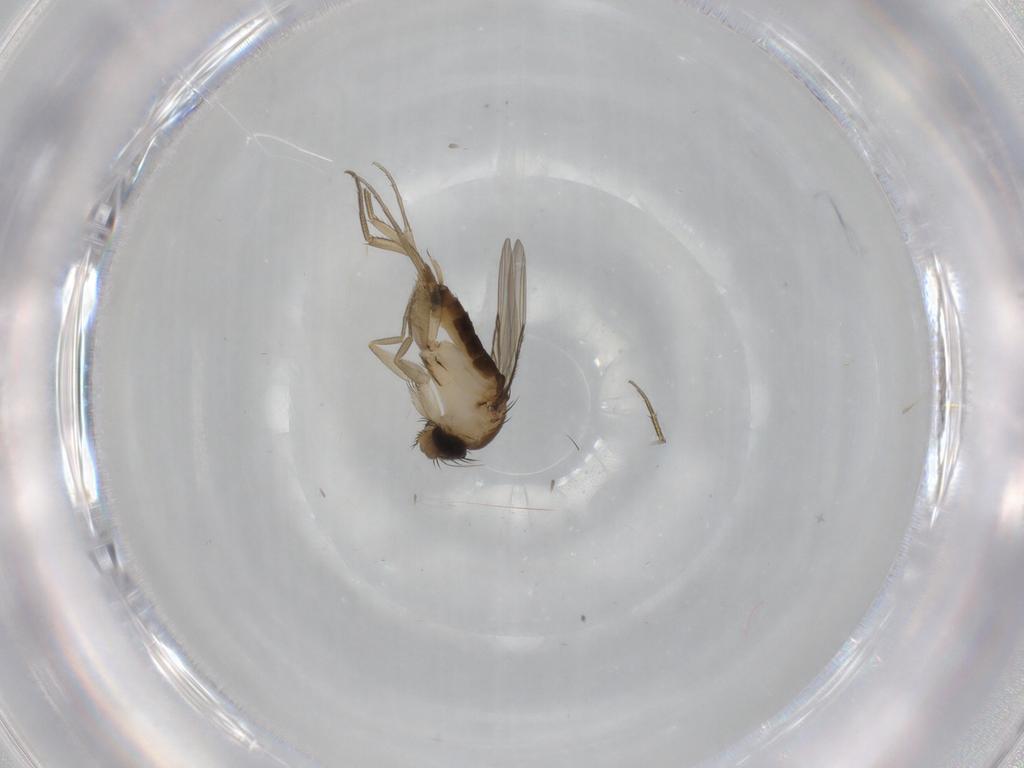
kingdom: Animalia
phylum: Arthropoda
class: Insecta
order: Diptera
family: Phoridae
